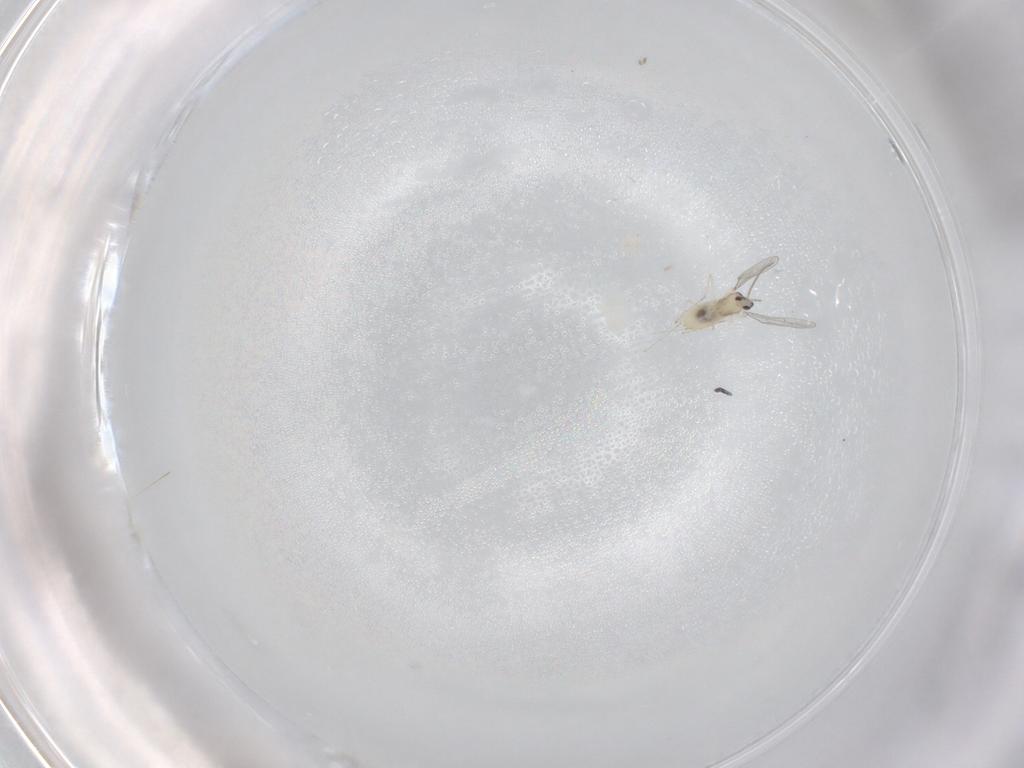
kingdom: Animalia
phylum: Arthropoda
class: Insecta
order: Diptera
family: Cecidomyiidae
